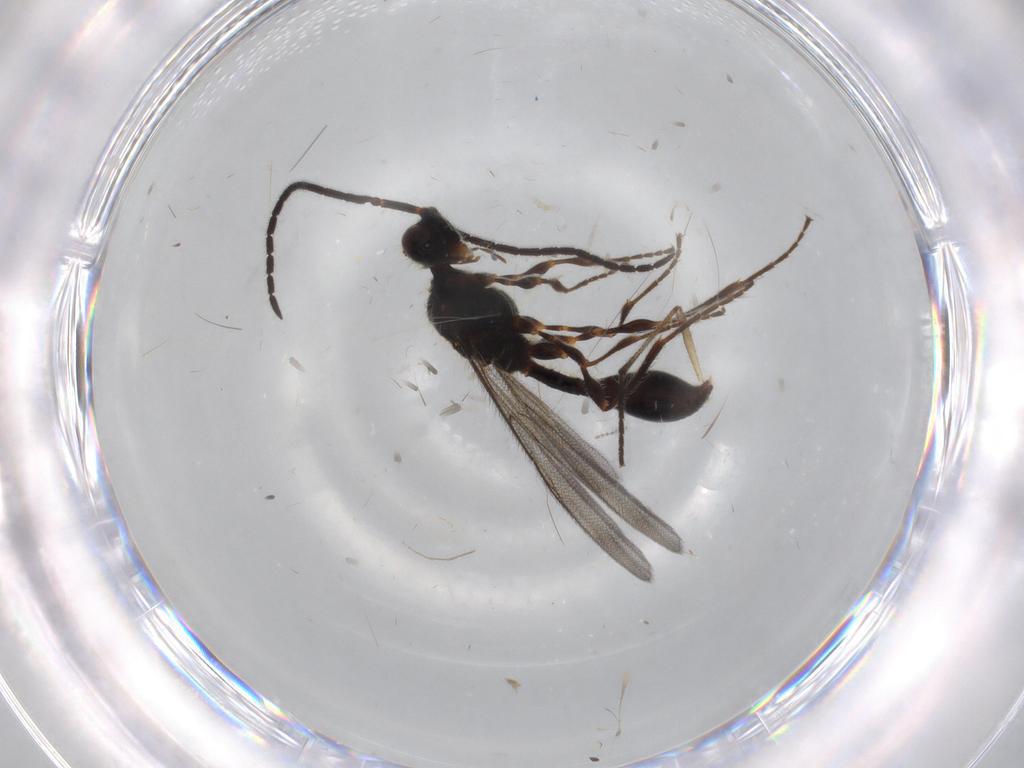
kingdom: Animalia
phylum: Arthropoda
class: Insecta
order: Hymenoptera
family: Diapriidae
